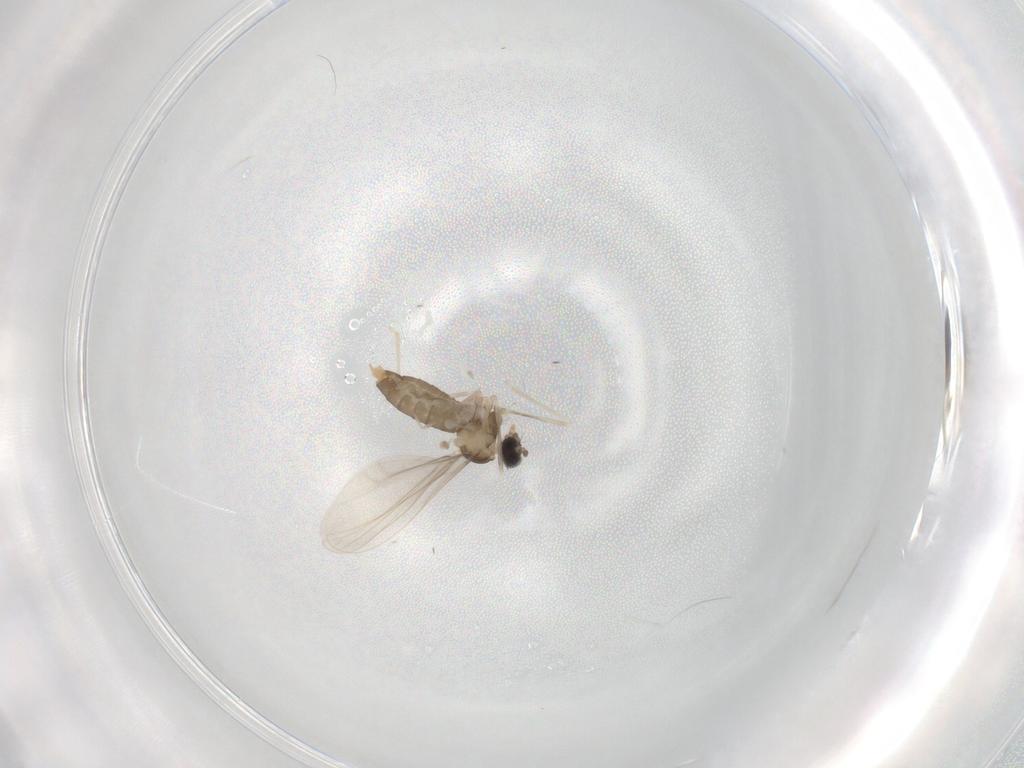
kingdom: Animalia
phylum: Arthropoda
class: Insecta
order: Diptera
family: Cecidomyiidae
